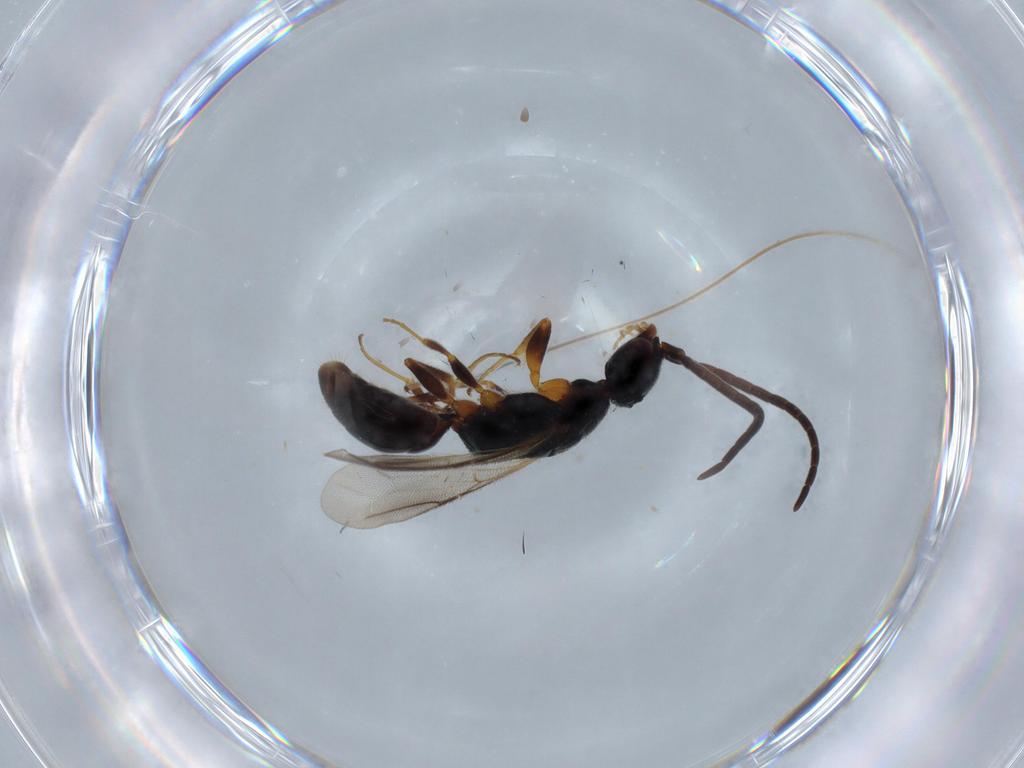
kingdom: Animalia
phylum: Arthropoda
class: Insecta
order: Hymenoptera
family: Bethylidae
